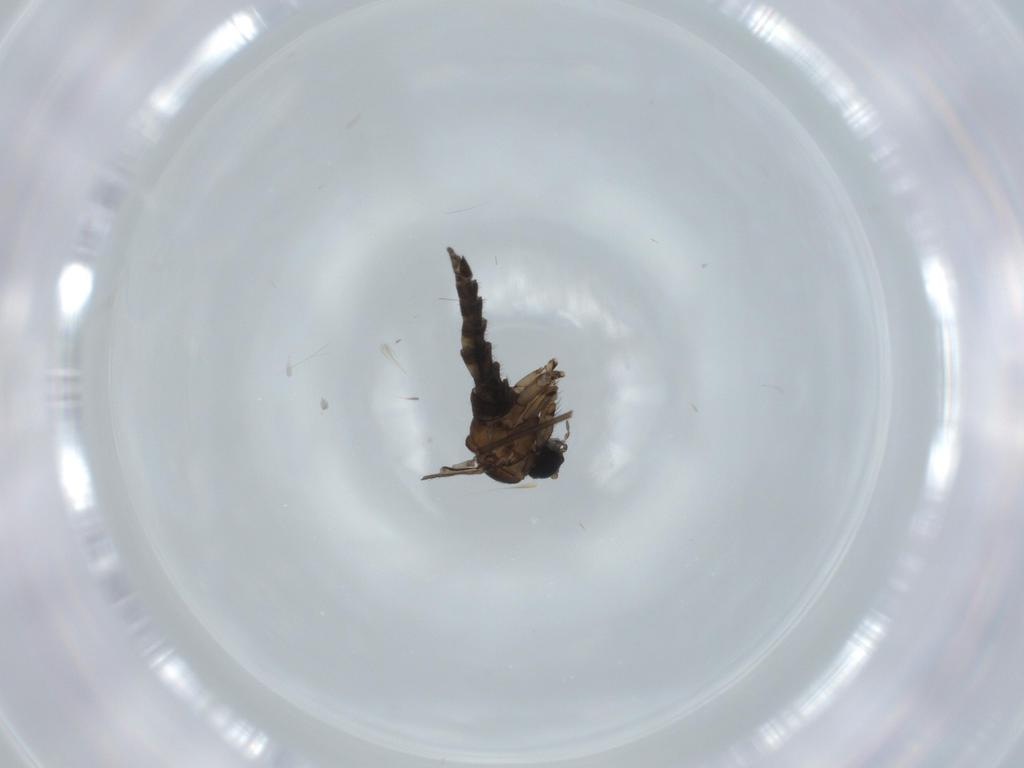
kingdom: Animalia
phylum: Arthropoda
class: Insecta
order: Diptera
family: Sciaridae
